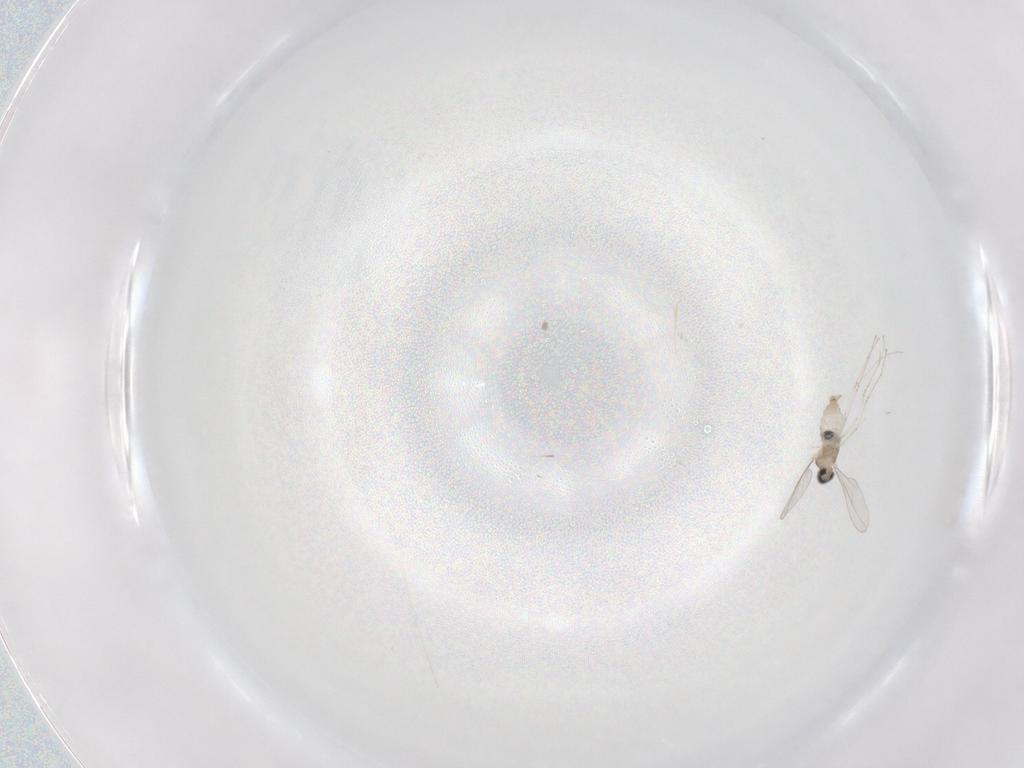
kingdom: Animalia
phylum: Arthropoda
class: Insecta
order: Diptera
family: Cecidomyiidae
